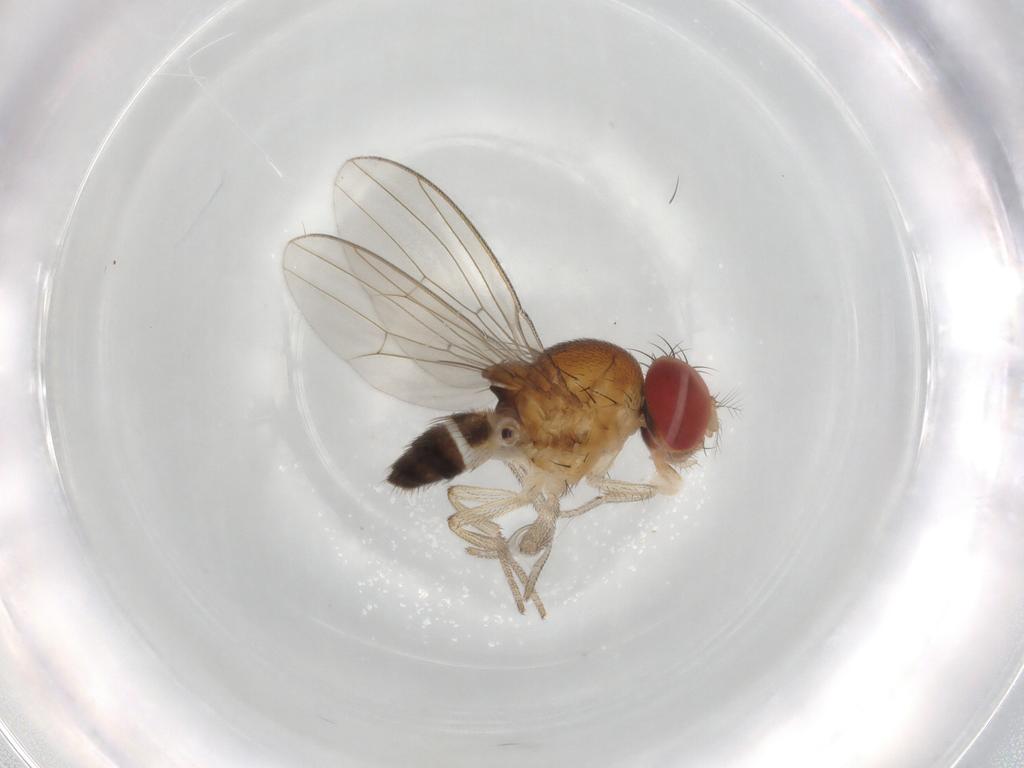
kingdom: Animalia
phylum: Arthropoda
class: Insecta
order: Diptera
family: Drosophilidae
